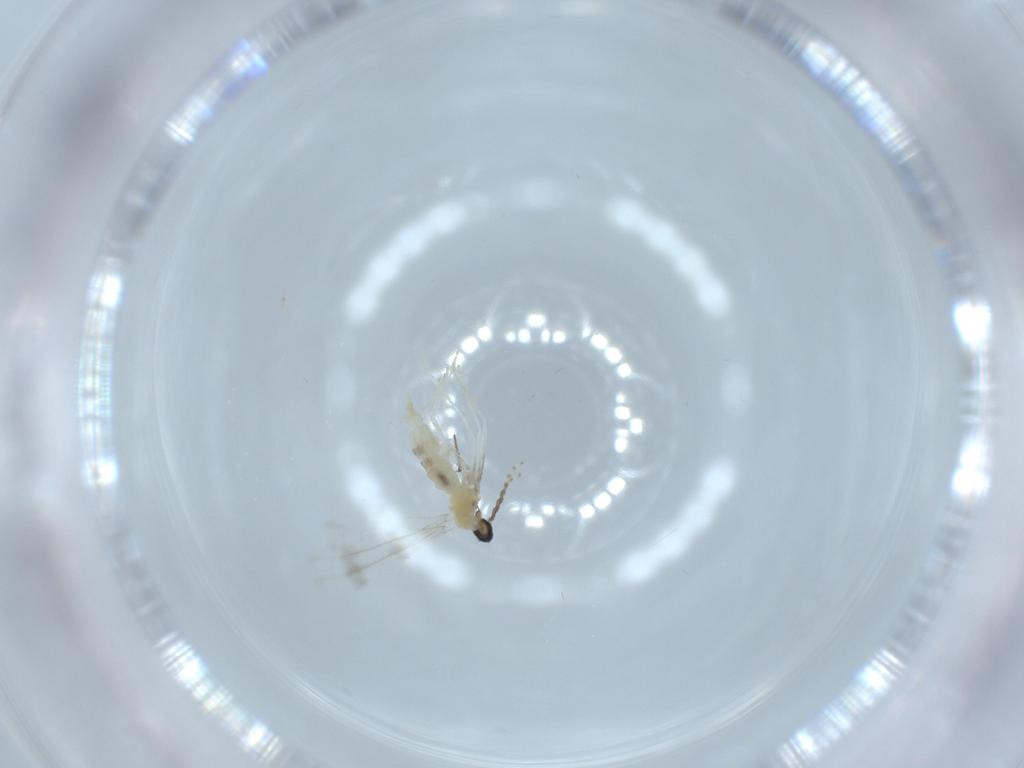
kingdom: Animalia
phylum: Arthropoda
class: Insecta
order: Diptera
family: Cecidomyiidae
